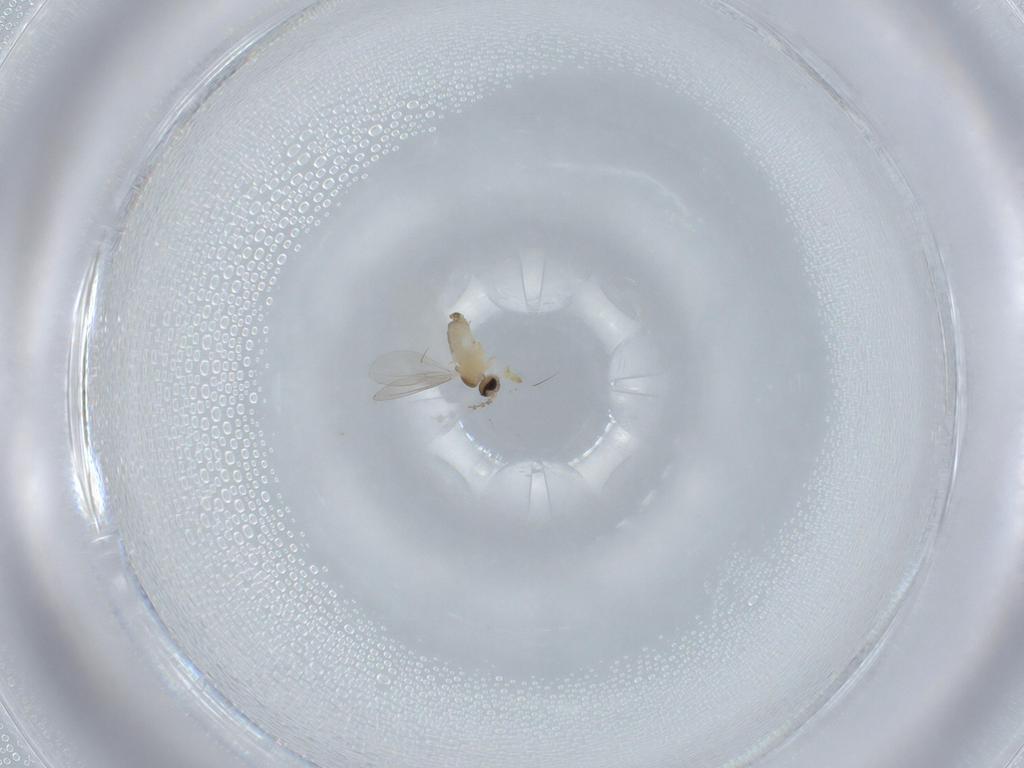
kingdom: Animalia
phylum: Arthropoda
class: Insecta
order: Diptera
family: Cecidomyiidae
